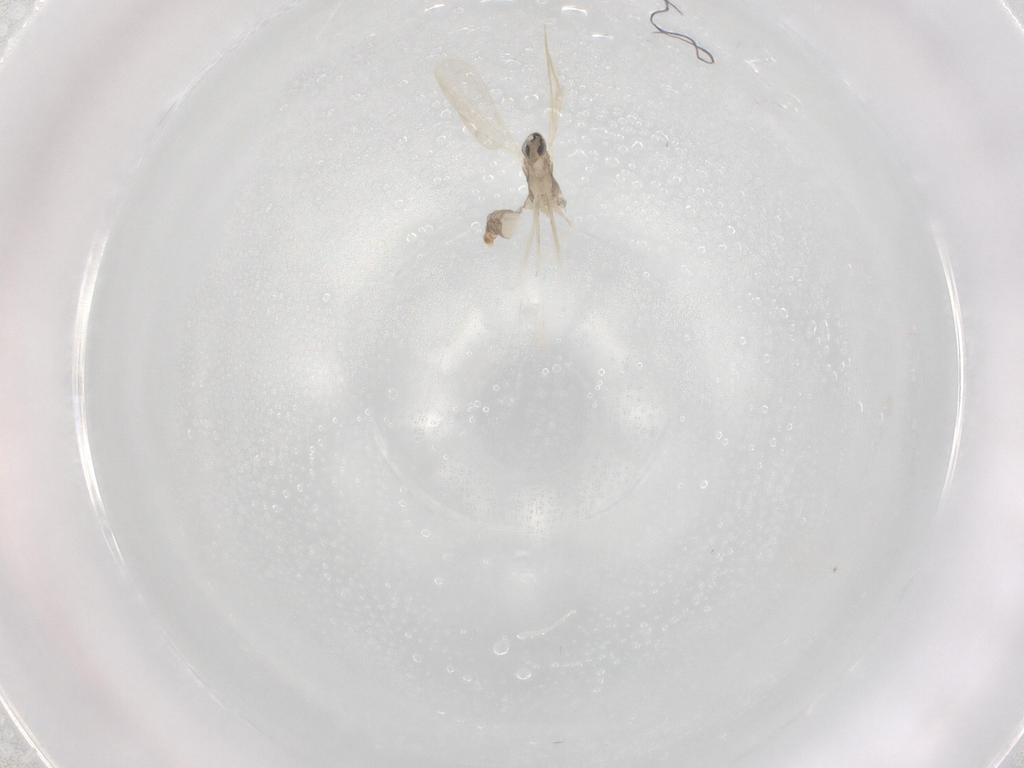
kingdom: Animalia
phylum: Arthropoda
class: Insecta
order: Diptera
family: Cecidomyiidae
